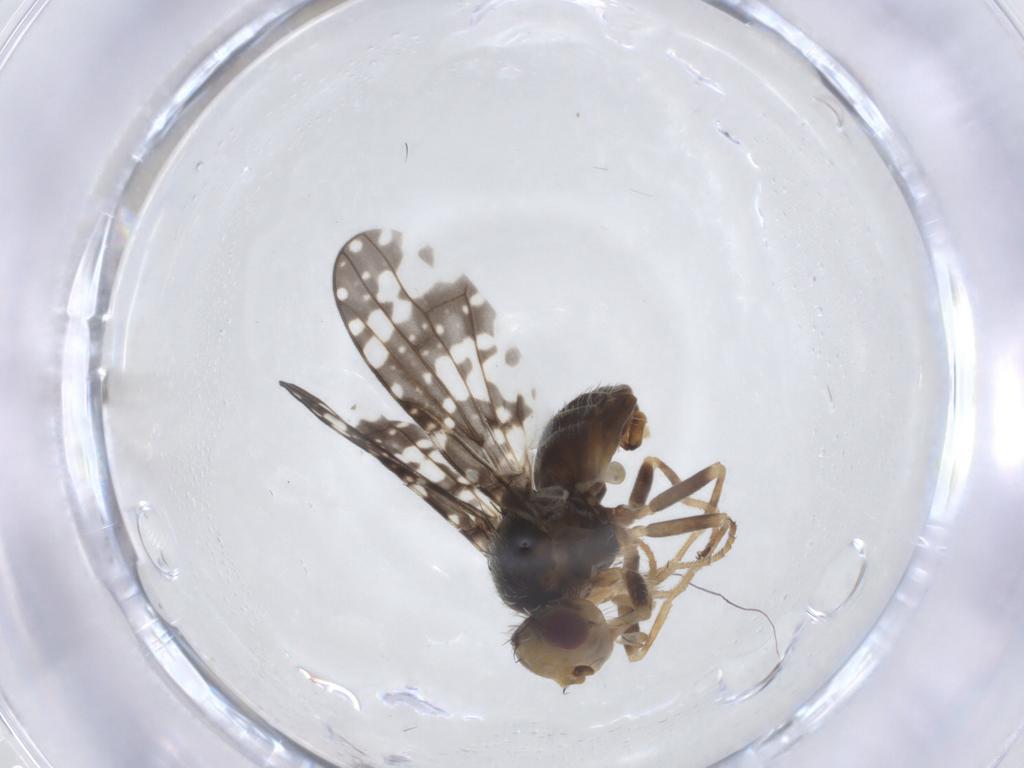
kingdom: Animalia
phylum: Arthropoda
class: Insecta
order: Diptera
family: Tephritidae
